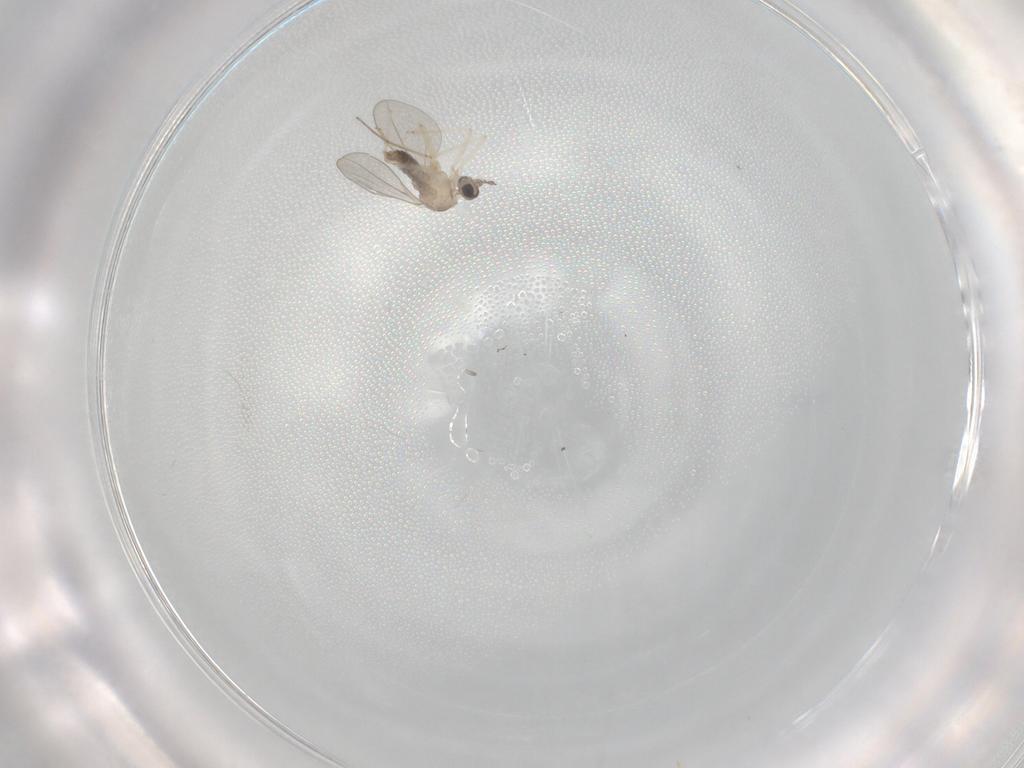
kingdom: Animalia
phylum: Arthropoda
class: Insecta
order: Diptera
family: Cecidomyiidae
